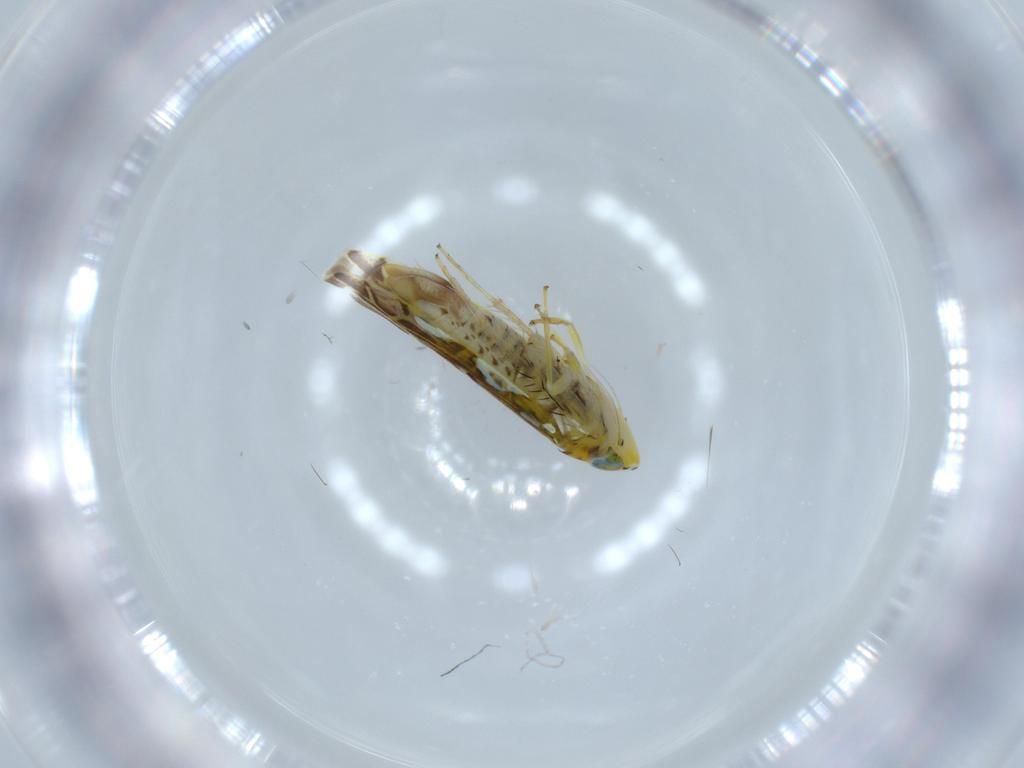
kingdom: Animalia
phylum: Arthropoda
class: Insecta
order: Hemiptera
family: Cicadellidae
